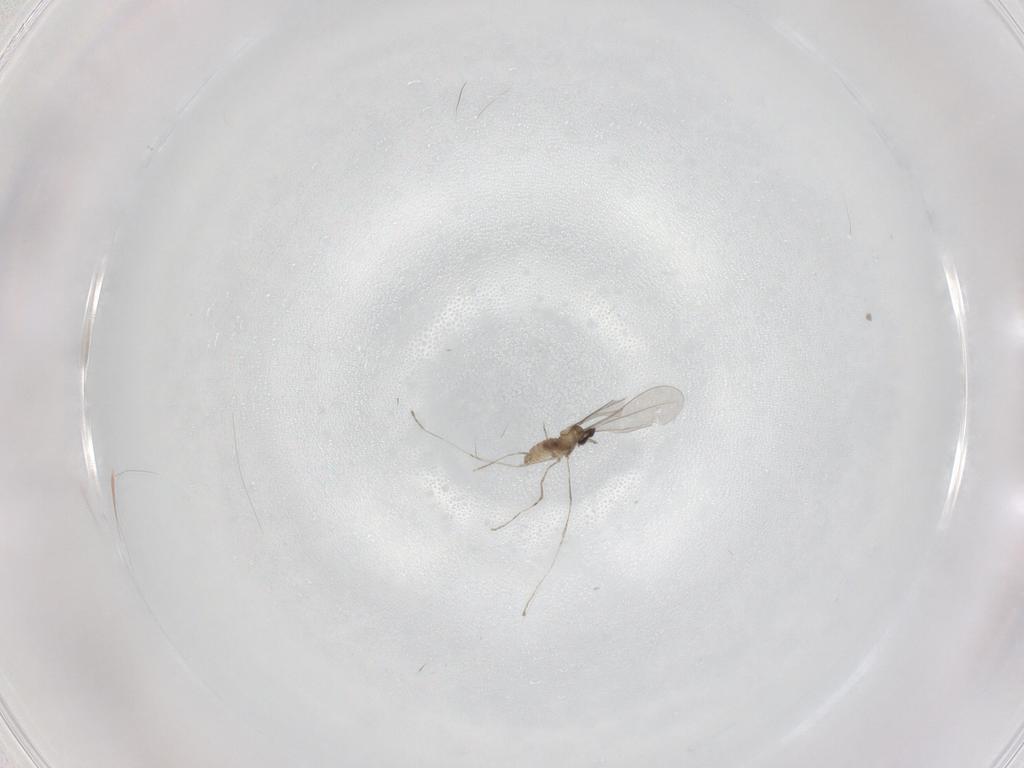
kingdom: Animalia
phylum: Arthropoda
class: Insecta
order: Diptera
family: Cecidomyiidae
